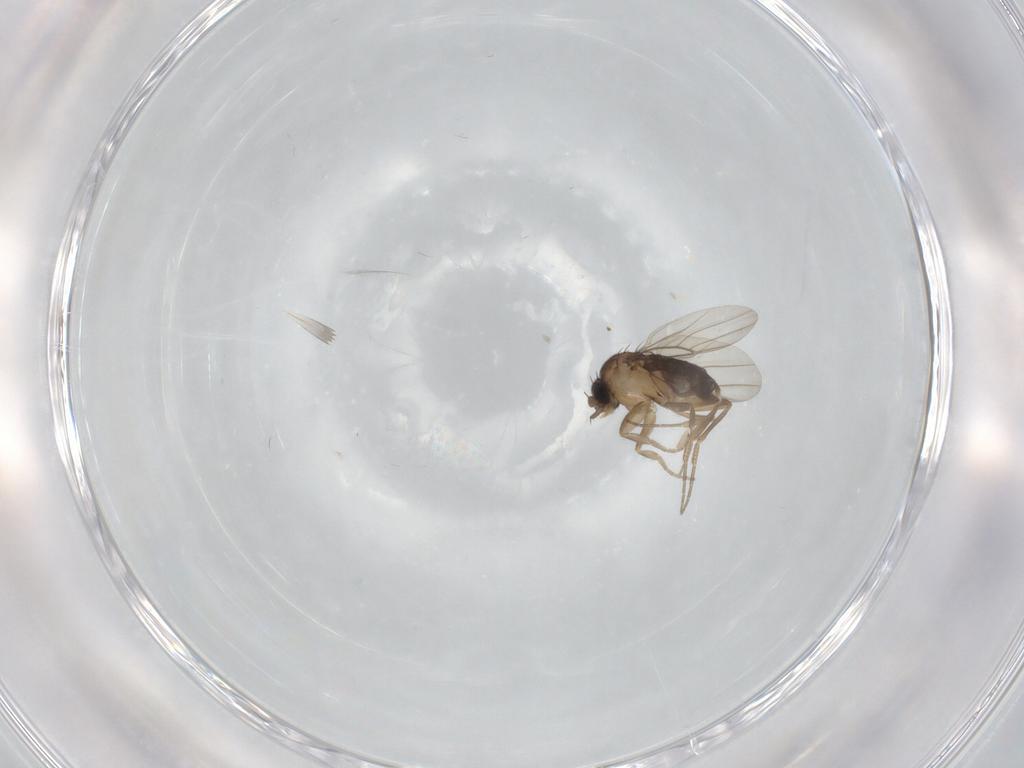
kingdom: Animalia
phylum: Arthropoda
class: Insecta
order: Diptera
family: Phoridae
